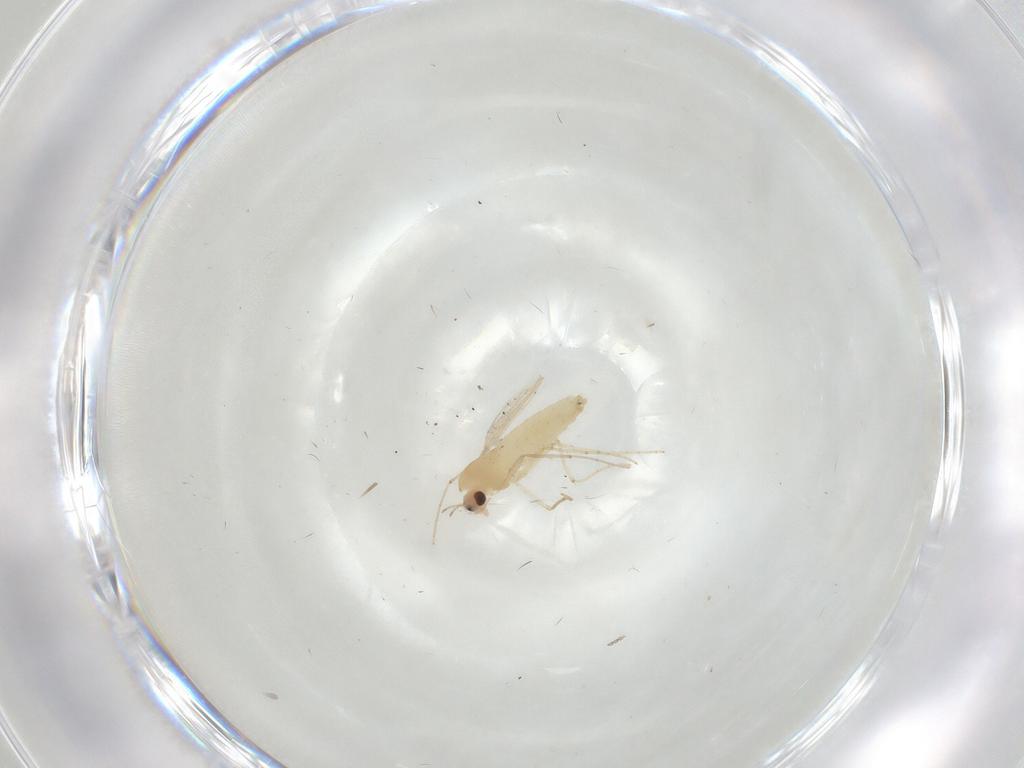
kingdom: Animalia
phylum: Arthropoda
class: Insecta
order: Diptera
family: Chironomidae
